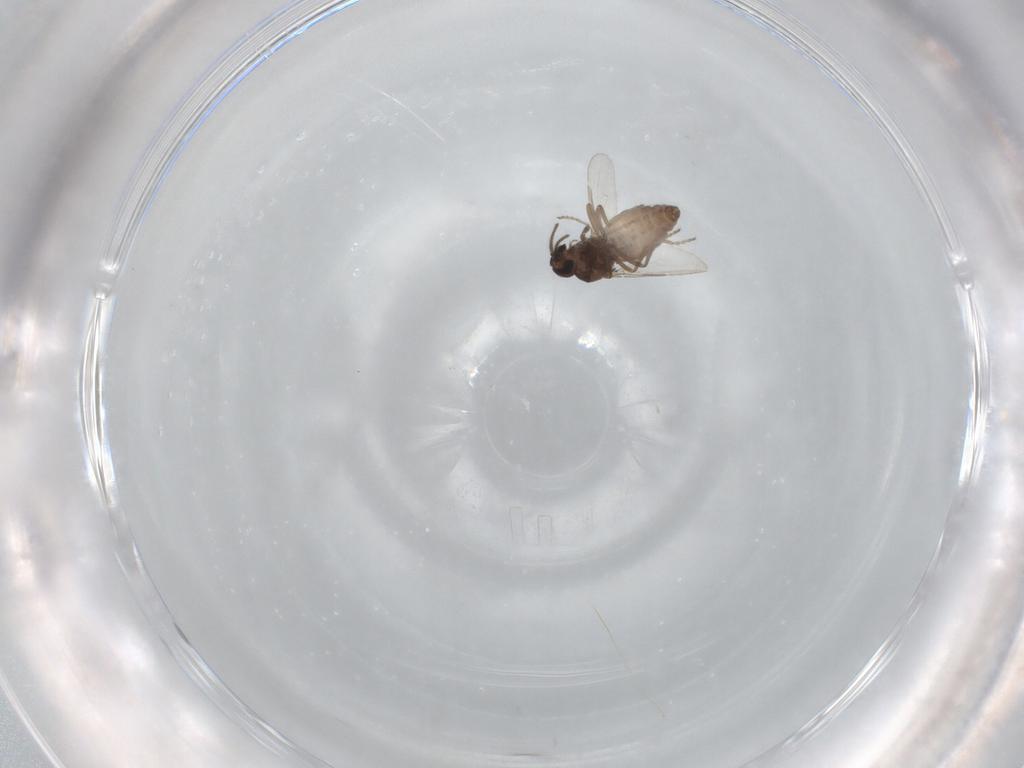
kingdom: Animalia
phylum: Arthropoda
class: Insecta
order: Diptera
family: Ceratopogonidae
